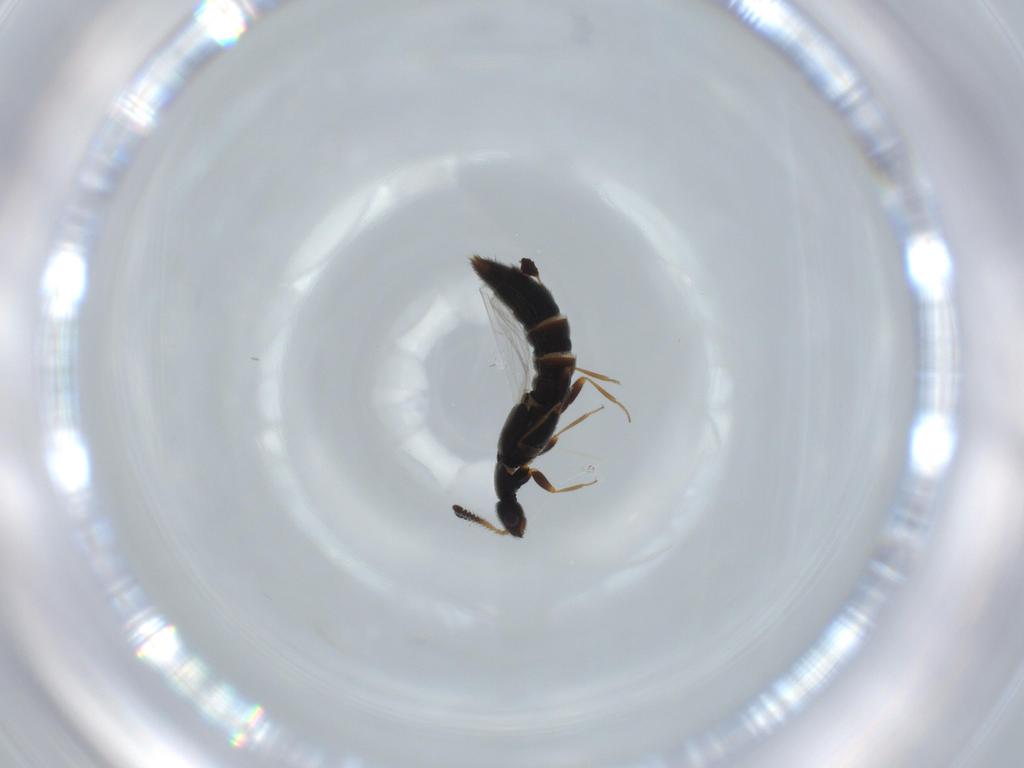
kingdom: Animalia
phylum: Arthropoda
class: Insecta
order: Coleoptera
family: Cantharidae
